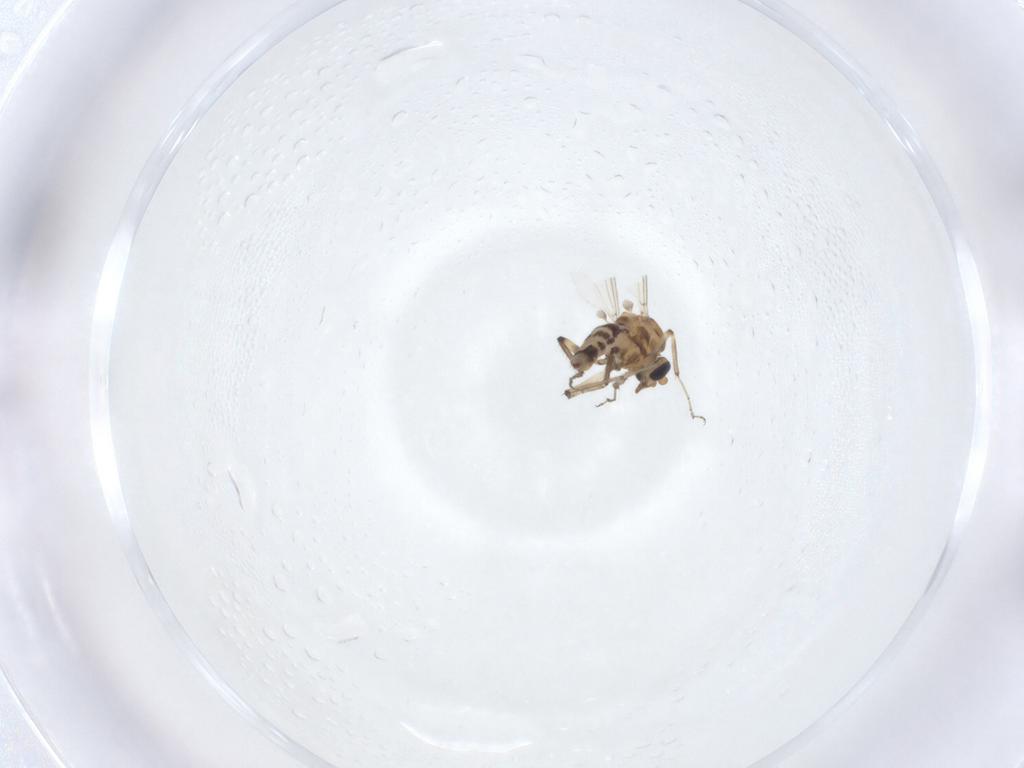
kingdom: Animalia
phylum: Arthropoda
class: Insecta
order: Diptera
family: Ceratopogonidae
